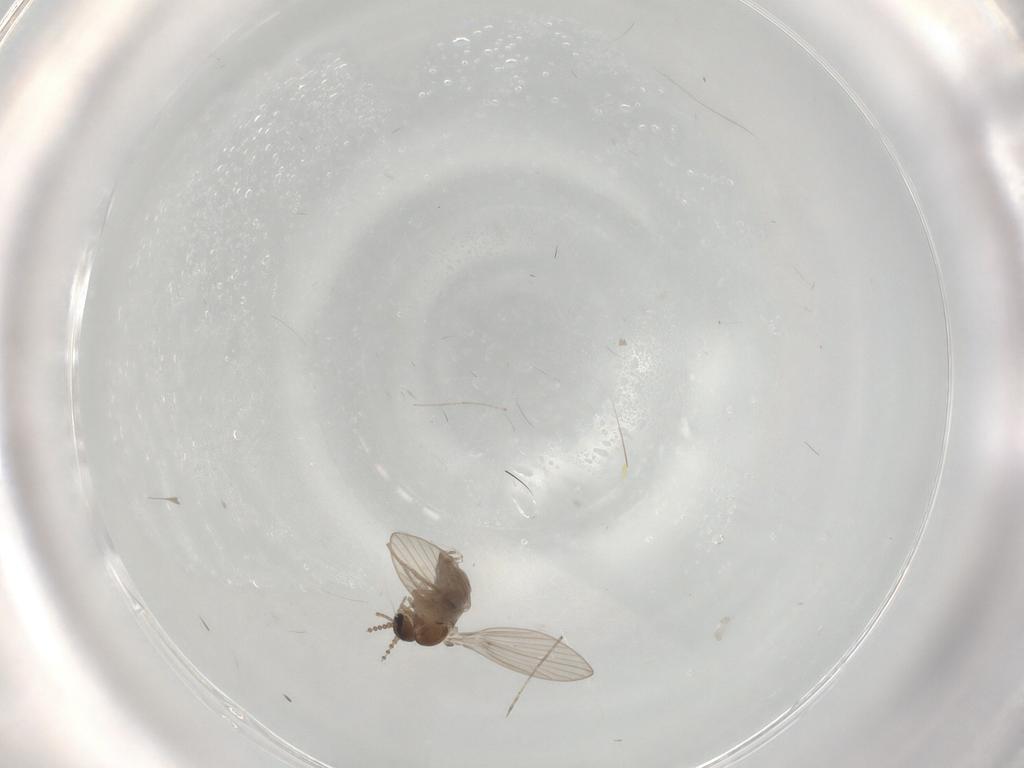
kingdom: Animalia
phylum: Arthropoda
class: Insecta
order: Diptera
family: Psychodidae
